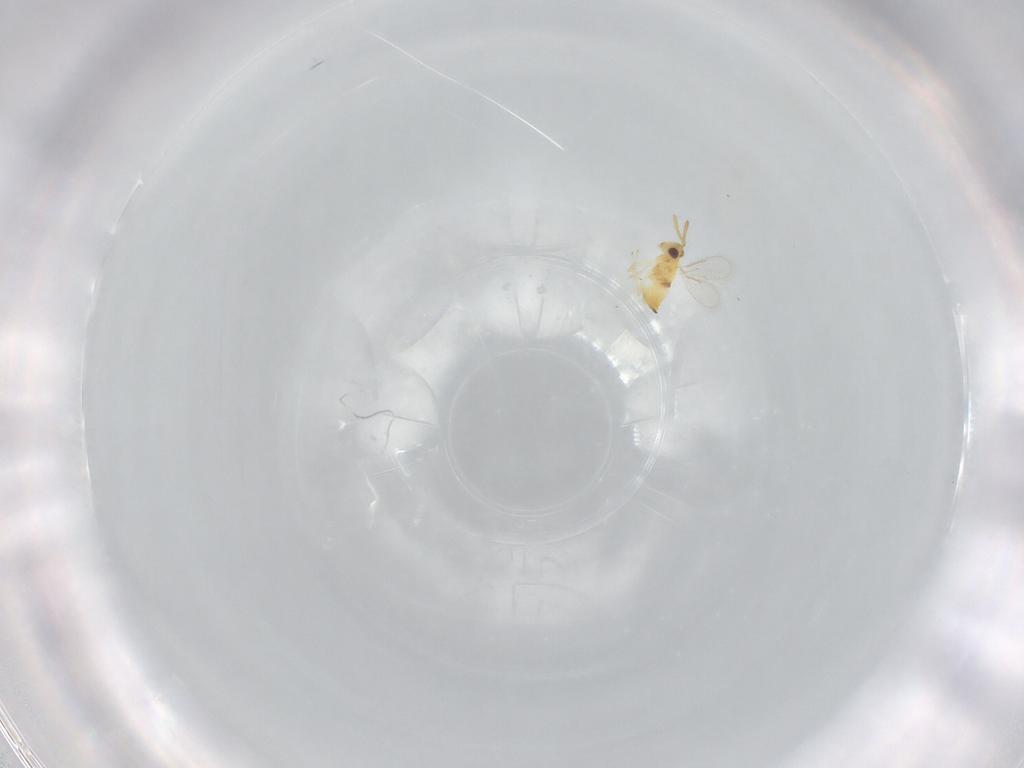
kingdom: Animalia
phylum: Arthropoda
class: Insecta
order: Hymenoptera
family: Aphelinidae
